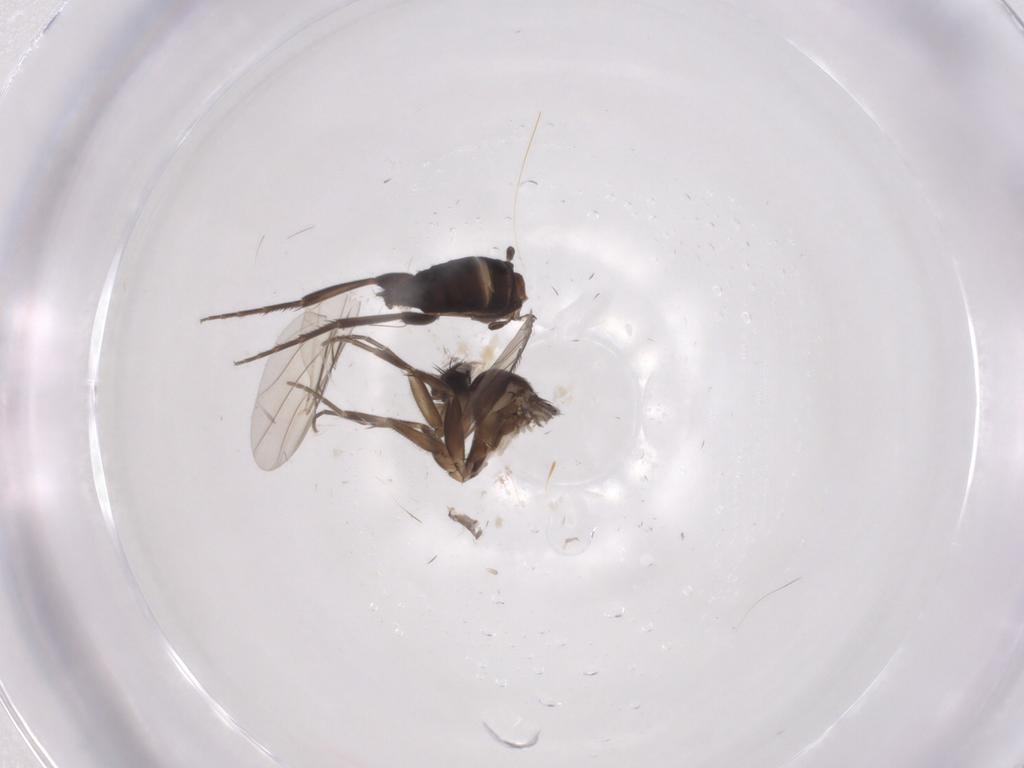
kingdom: Animalia
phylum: Arthropoda
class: Insecta
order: Diptera
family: Phoridae
